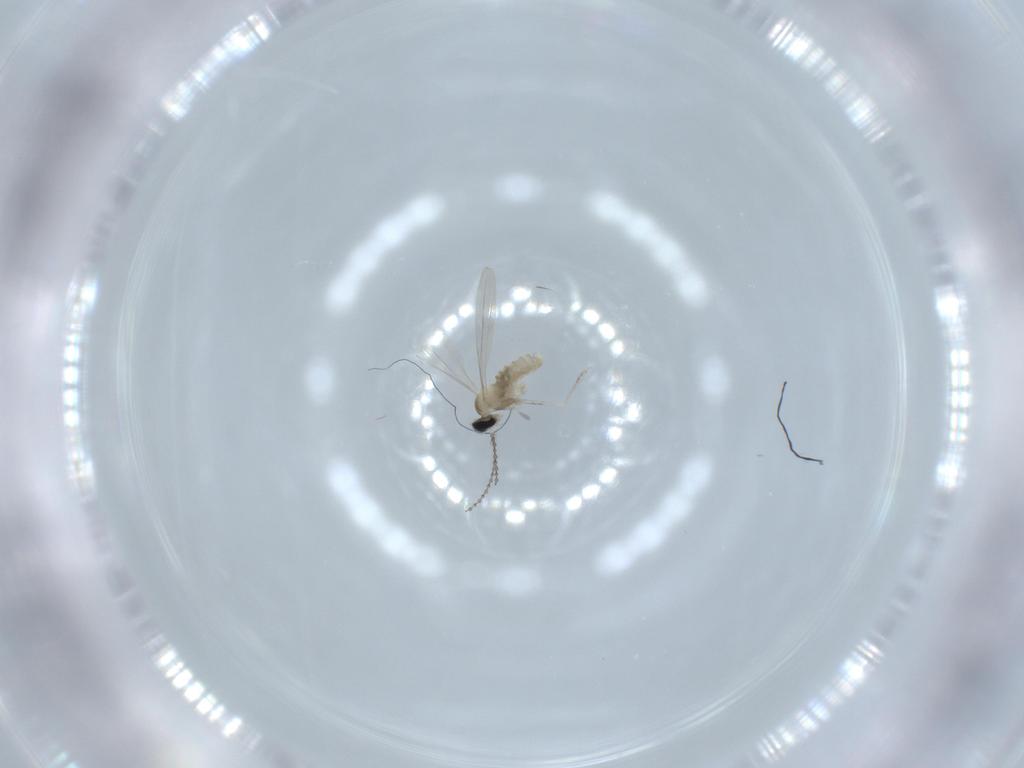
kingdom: Animalia
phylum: Arthropoda
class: Insecta
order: Diptera
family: Cecidomyiidae
